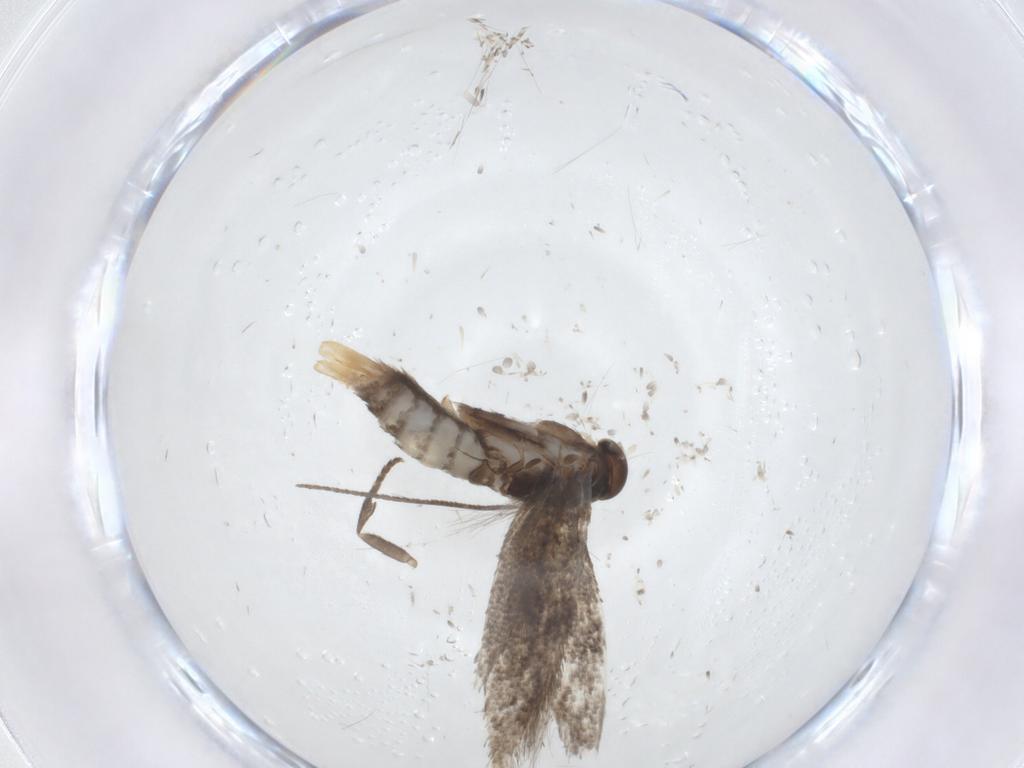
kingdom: Animalia
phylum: Arthropoda
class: Insecta
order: Lepidoptera
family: Elachistidae
